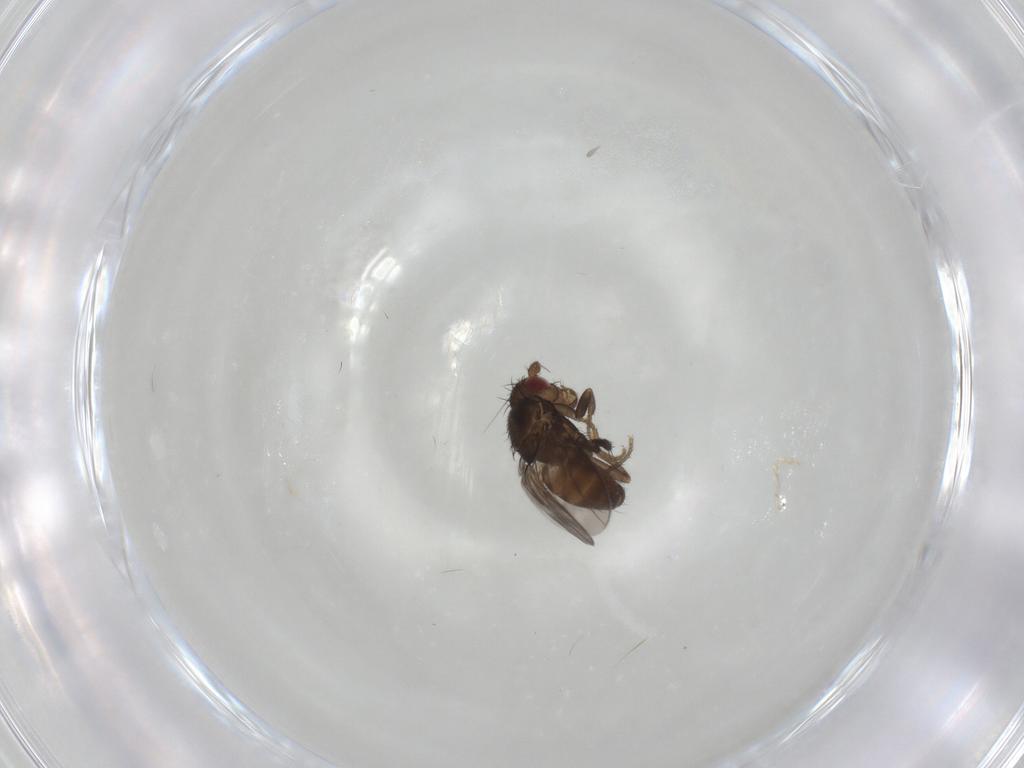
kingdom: Animalia
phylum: Arthropoda
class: Insecta
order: Diptera
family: Sphaeroceridae
